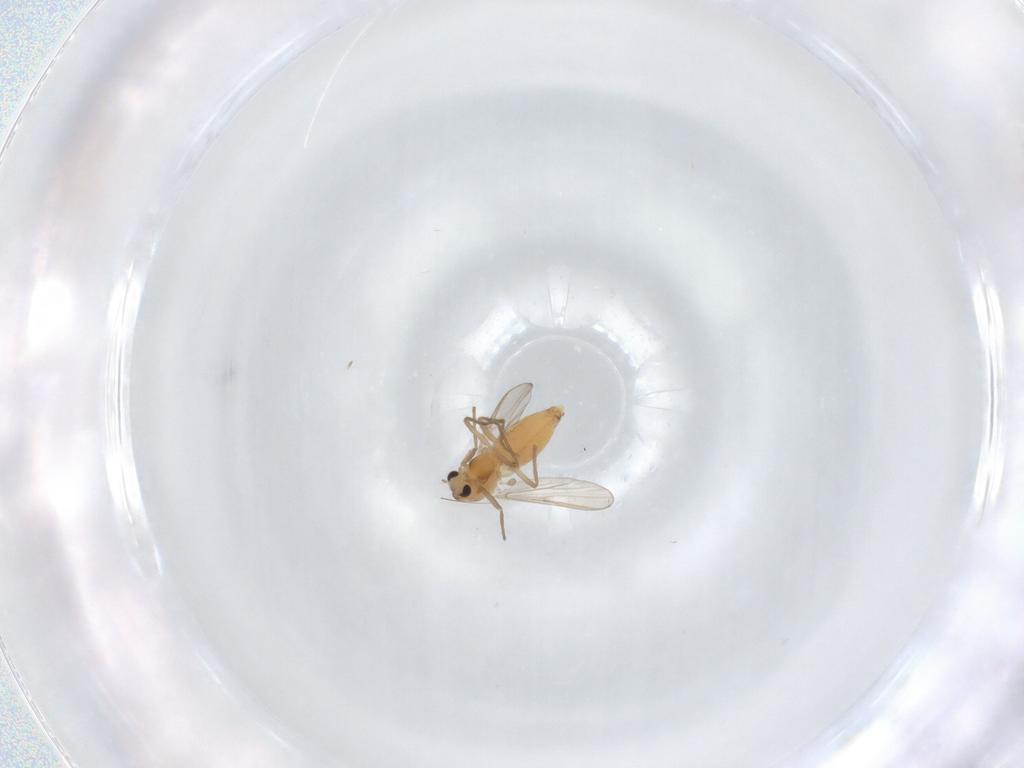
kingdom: Animalia
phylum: Arthropoda
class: Insecta
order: Diptera
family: Chironomidae
